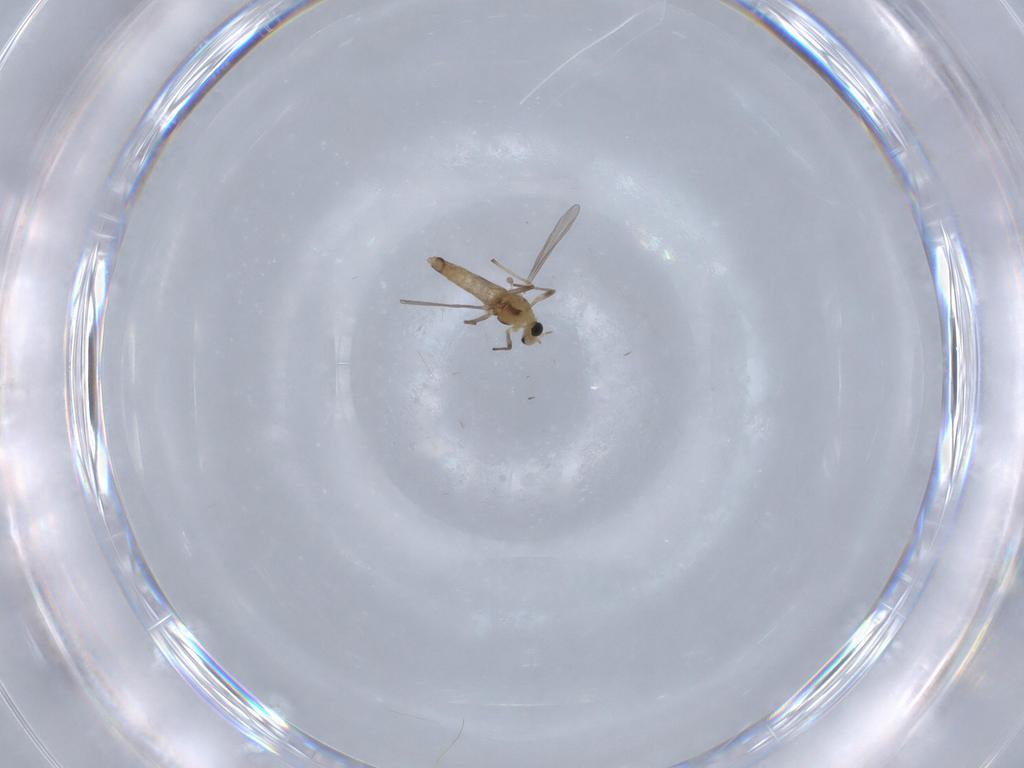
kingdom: Animalia
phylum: Arthropoda
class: Insecta
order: Diptera
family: Chironomidae
